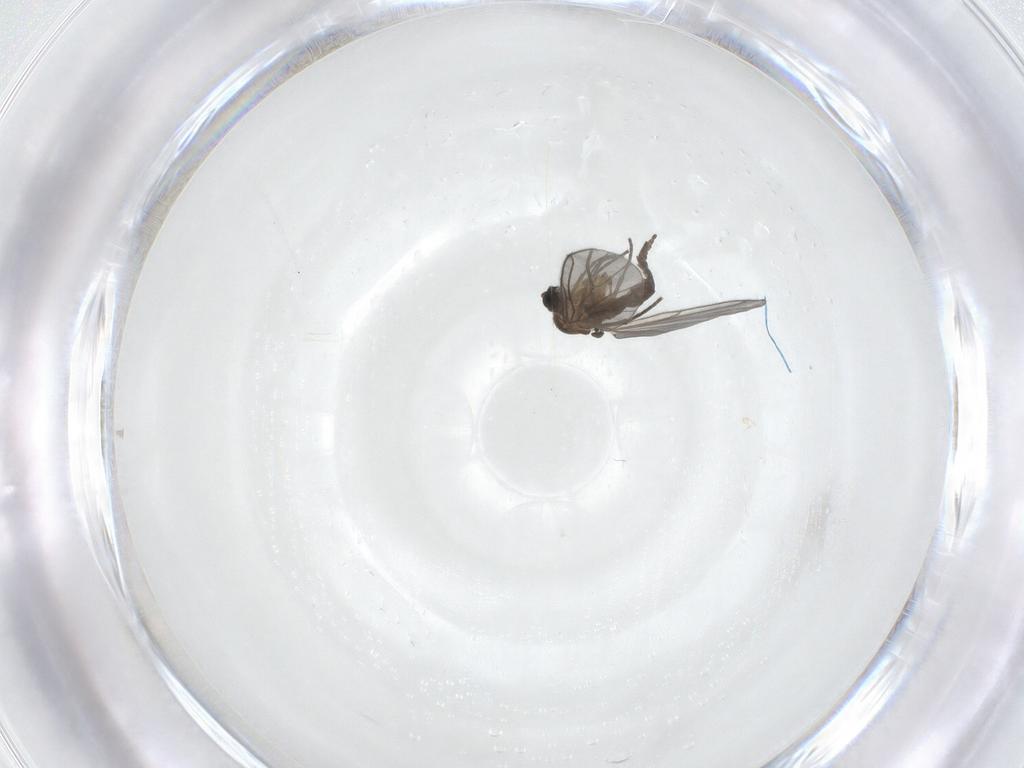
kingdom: Animalia
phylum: Arthropoda
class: Insecta
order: Diptera
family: Sciaridae
